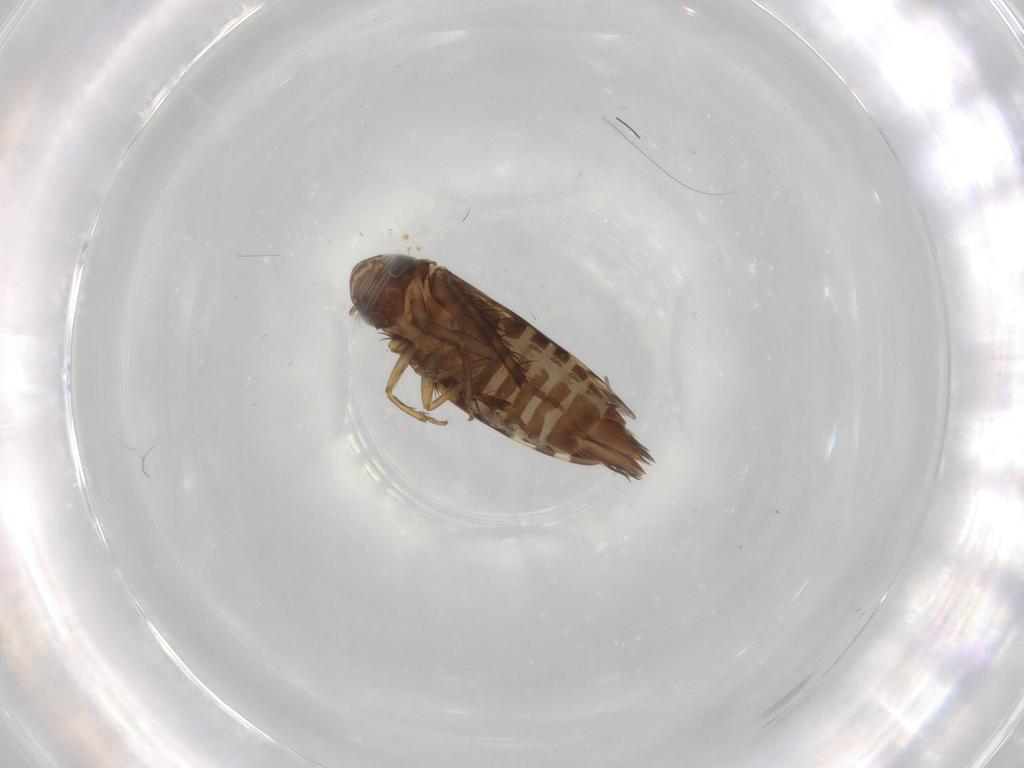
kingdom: Animalia
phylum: Arthropoda
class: Insecta
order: Hemiptera
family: Cicadellidae
